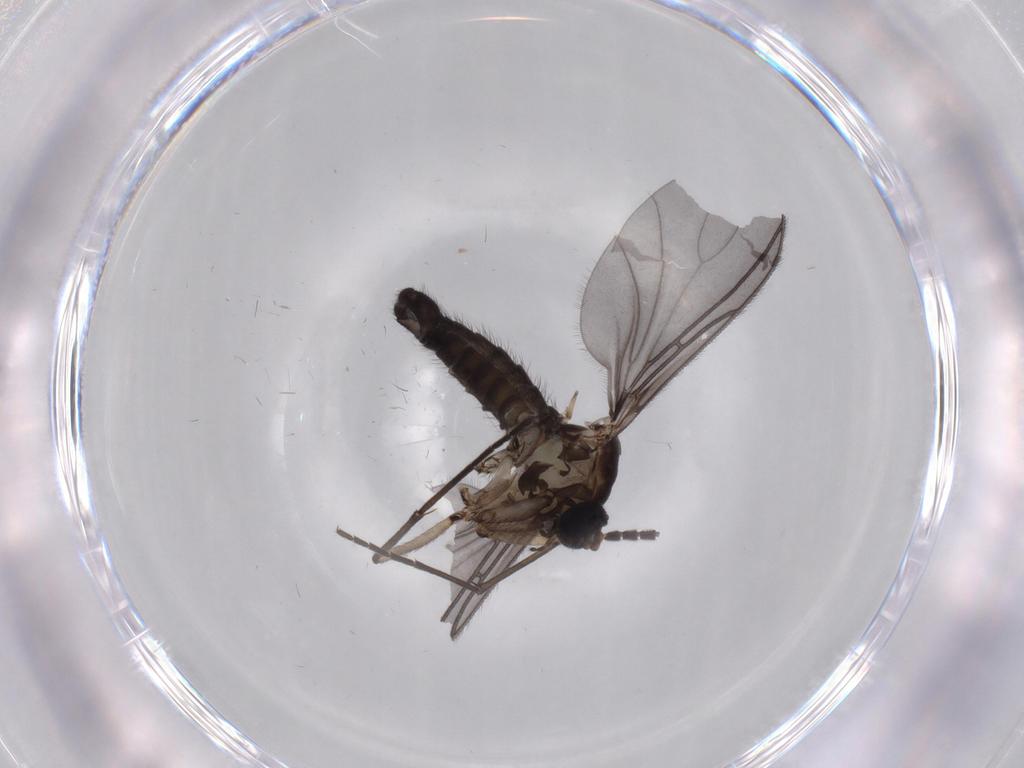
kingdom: Animalia
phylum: Arthropoda
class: Insecta
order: Diptera
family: Sciaridae
